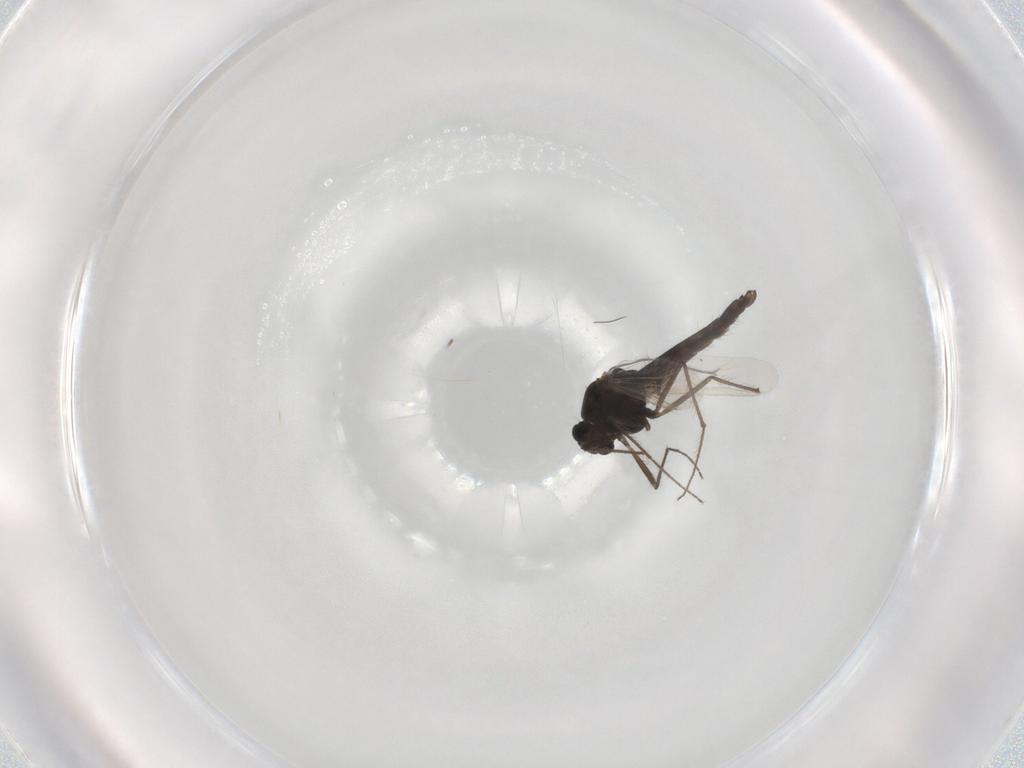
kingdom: Animalia
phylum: Arthropoda
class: Insecta
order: Diptera
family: Chironomidae
